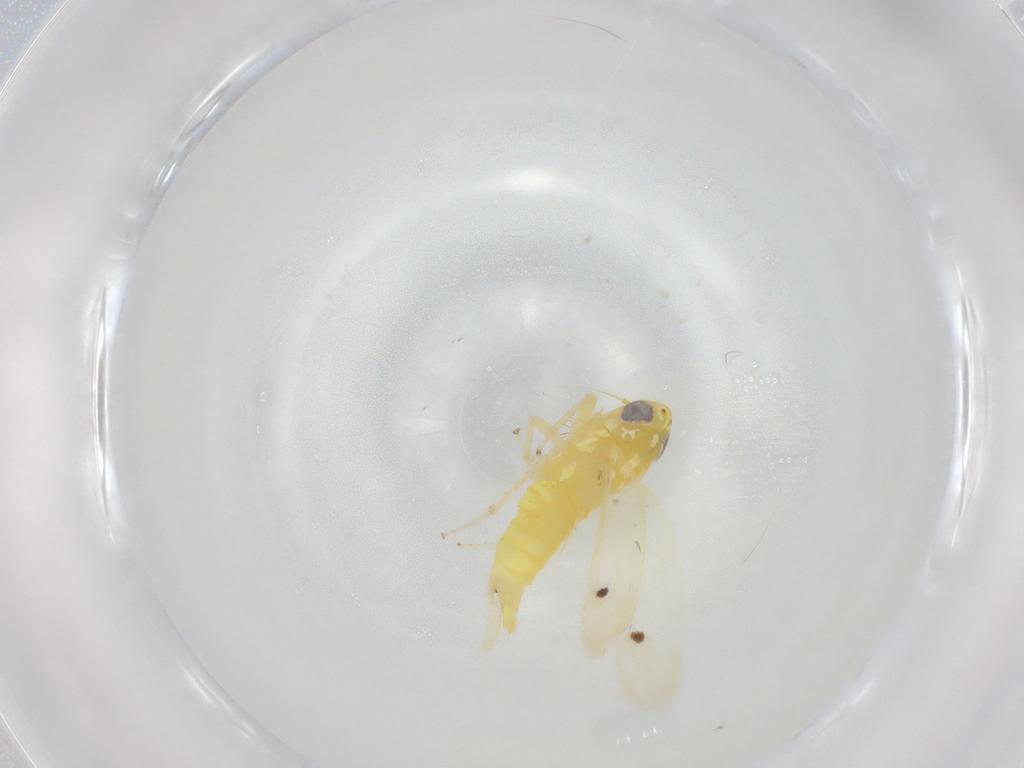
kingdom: Animalia
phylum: Arthropoda
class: Insecta
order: Hemiptera
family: Cicadellidae
